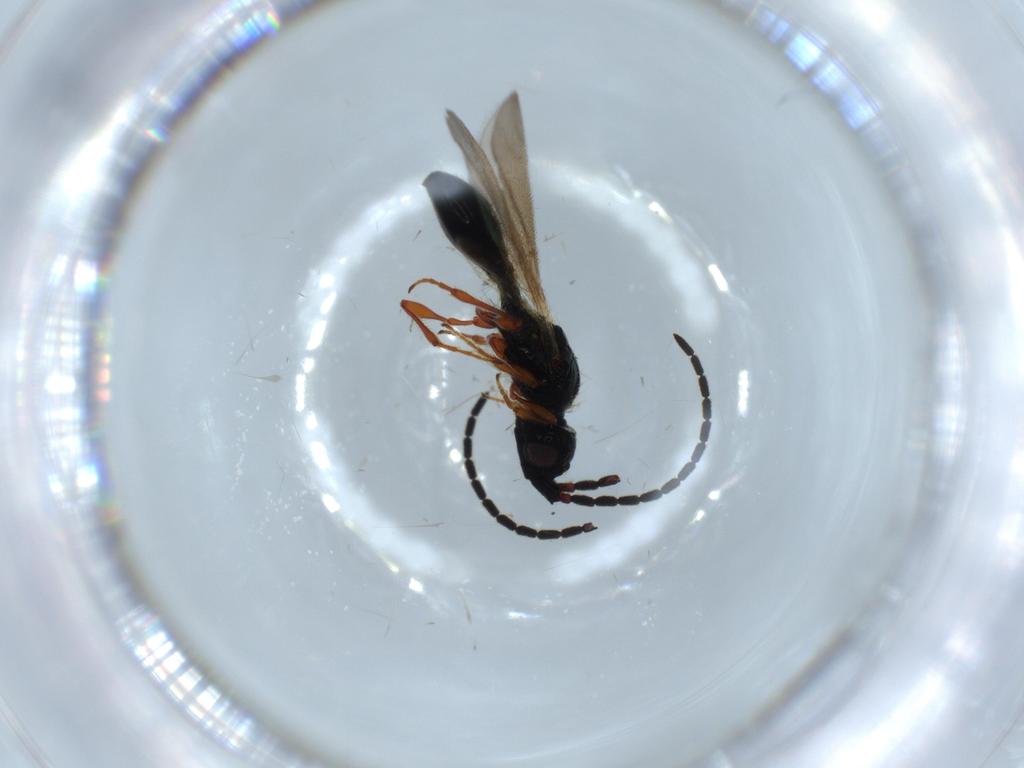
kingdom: Animalia
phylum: Arthropoda
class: Insecta
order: Hymenoptera
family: Diapriidae
